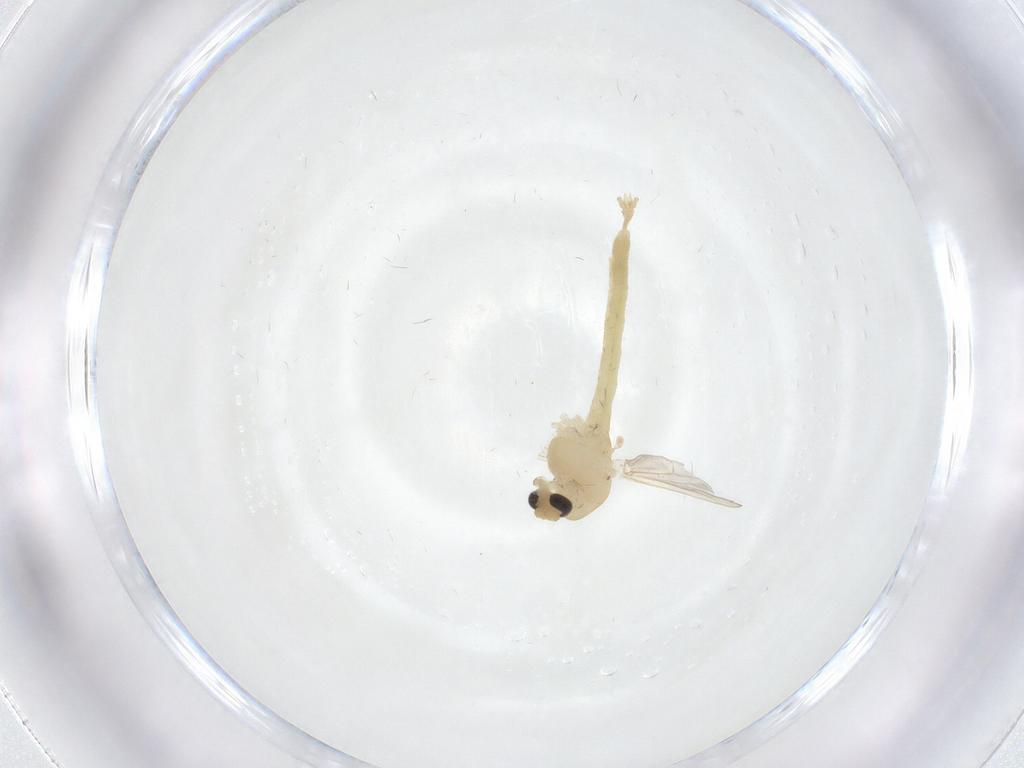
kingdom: Animalia
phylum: Arthropoda
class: Insecta
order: Diptera
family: Chironomidae
